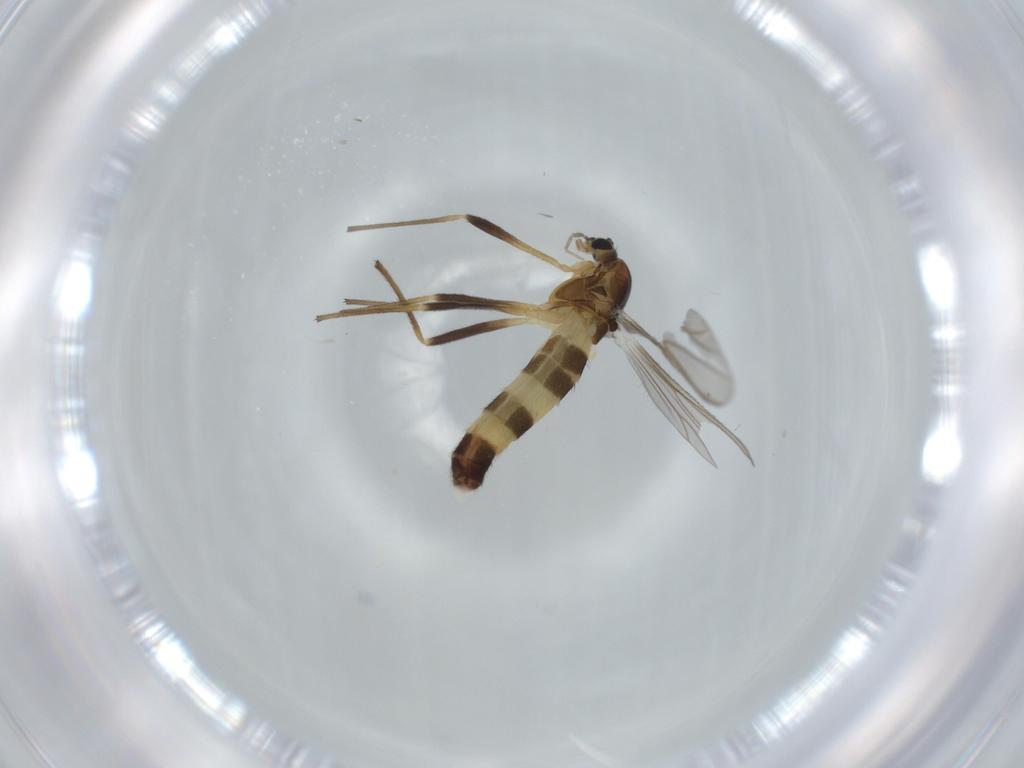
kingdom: Animalia
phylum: Arthropoda
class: Insecta
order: Diptera
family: Chironomidae
